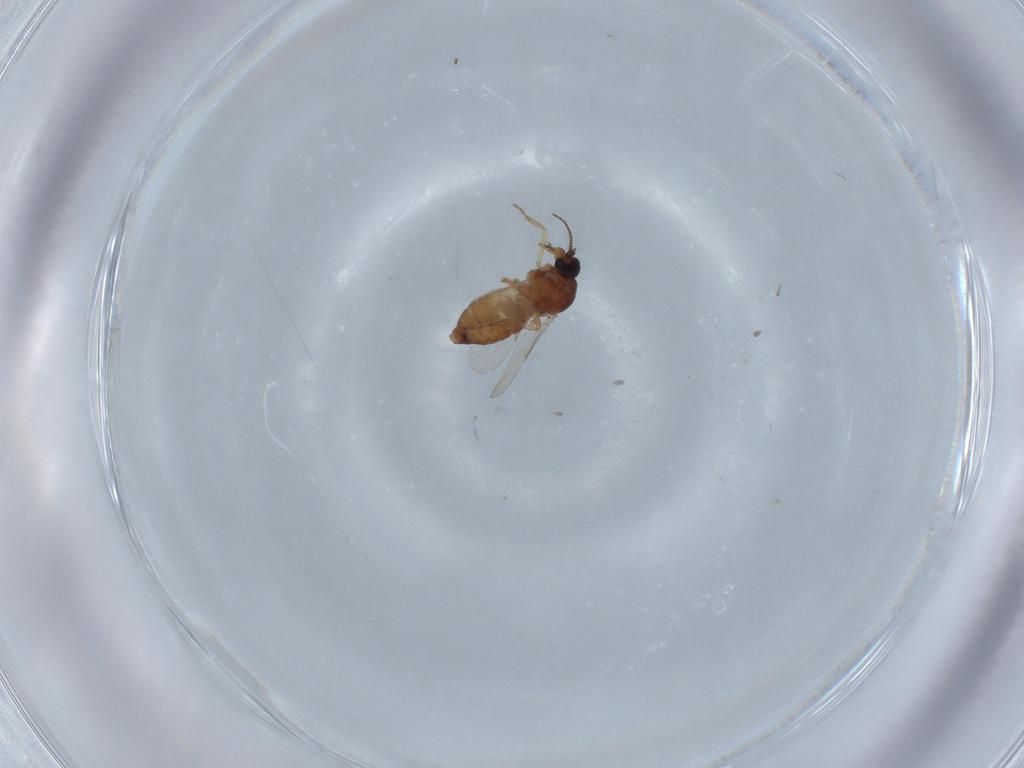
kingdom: Animalia
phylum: Arthropoda
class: Insecta
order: Diptera
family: Ceratopogonidae
